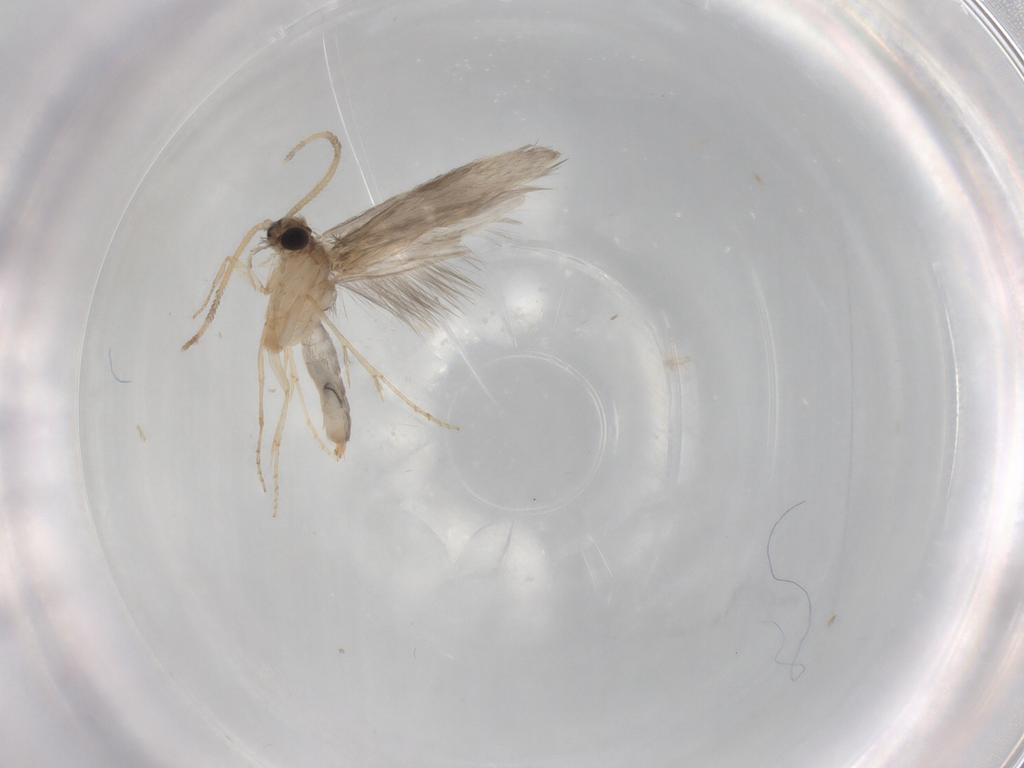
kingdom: Animalia
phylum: Arthropoda
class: Insecta
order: Trichoptera
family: Hydroptilidae
